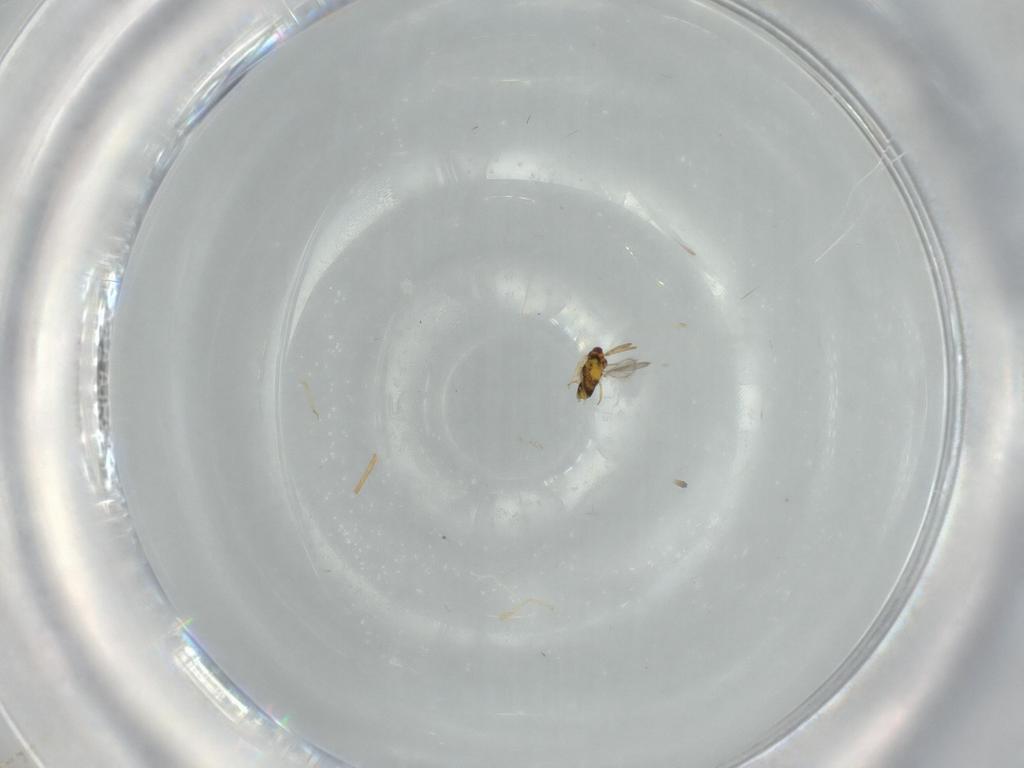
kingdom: Animalia
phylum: Arthropoda
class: Insecta
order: Hymenoptera
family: Aphelinidae
